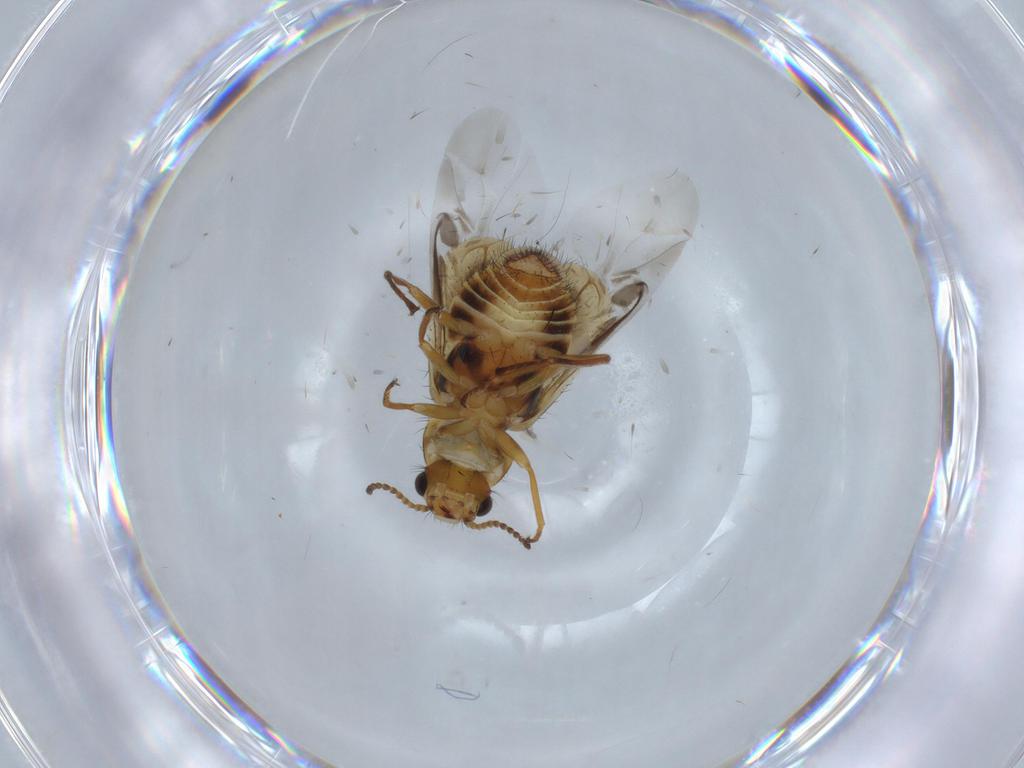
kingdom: Animalia
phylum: Arthropoda
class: Insecta
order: Coleoptera
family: Melyridae
